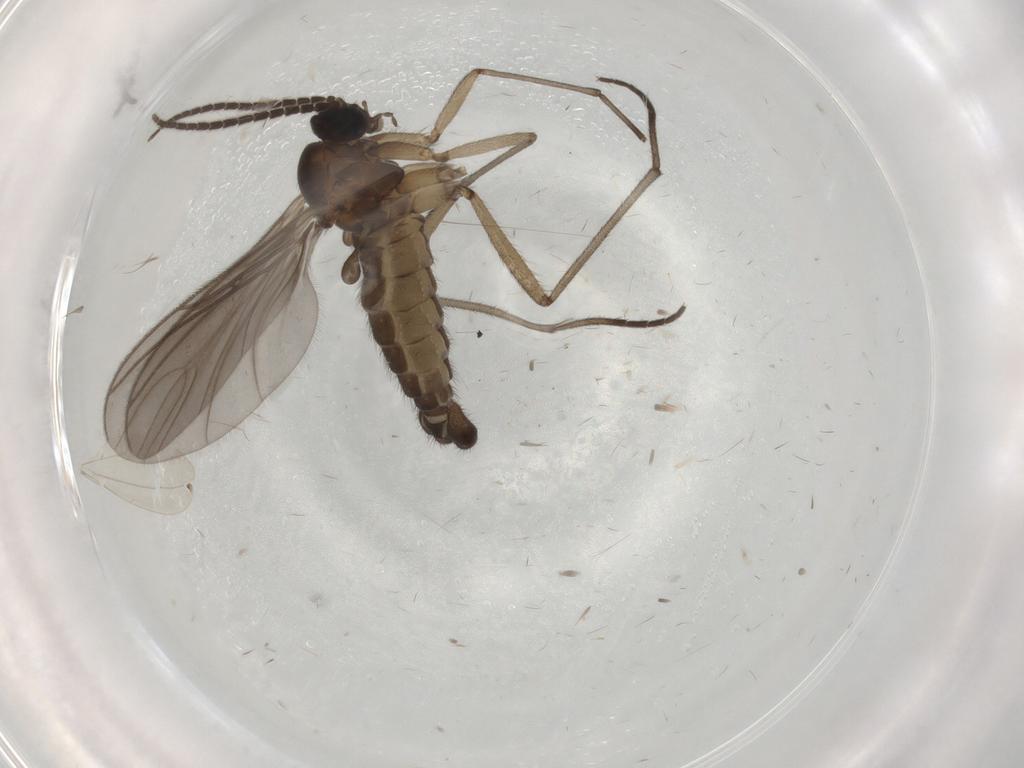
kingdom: Animalia
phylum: Arthropoda
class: Insecta
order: Diptera
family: Sciaridae
